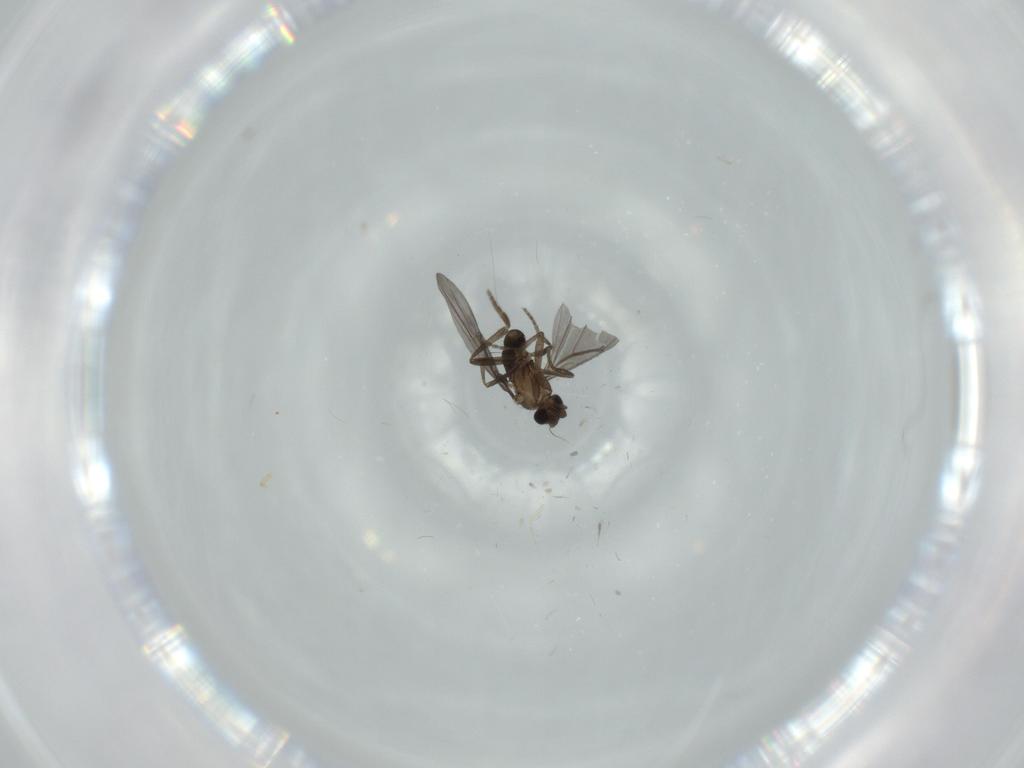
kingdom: Animalia
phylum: Arthropoda
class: Insecta
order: Diptera
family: Phoridae
